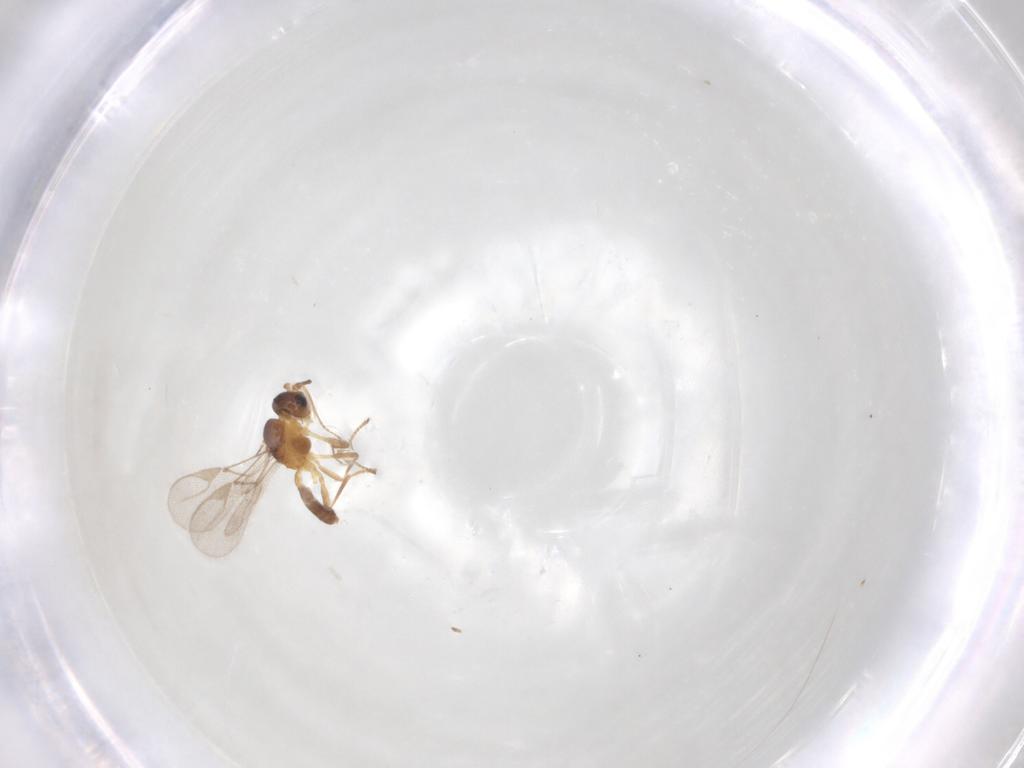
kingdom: Animalia
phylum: Arthropoda
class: Insecta
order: Hymenoptera
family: Braconidae
